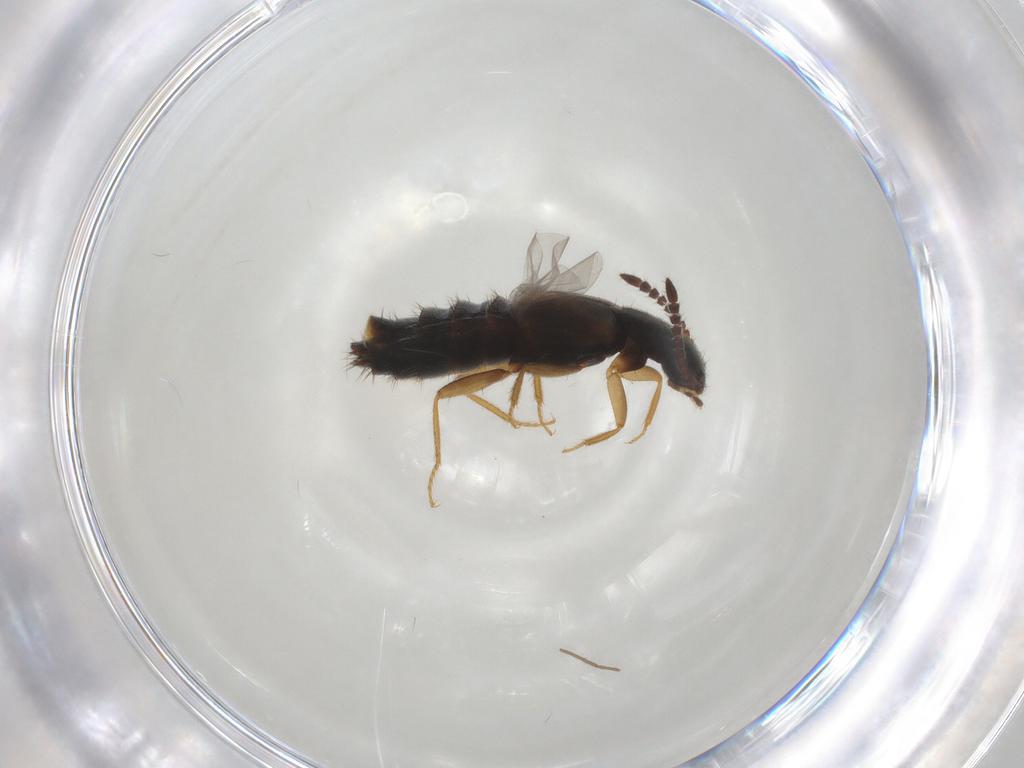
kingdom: Animalia
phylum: Arthropoda
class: Insecta
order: Coleoptera
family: Staphylinidae
